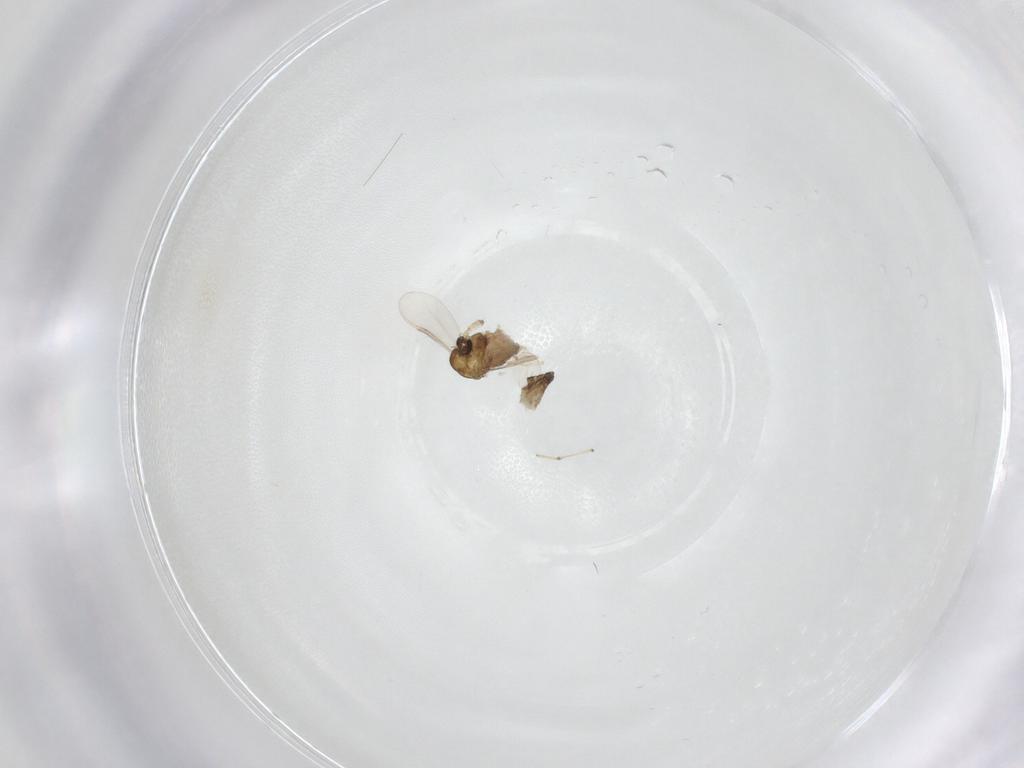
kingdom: Animalia
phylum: Arthropoda
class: Insecta
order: Diptera
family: Chironomidae
